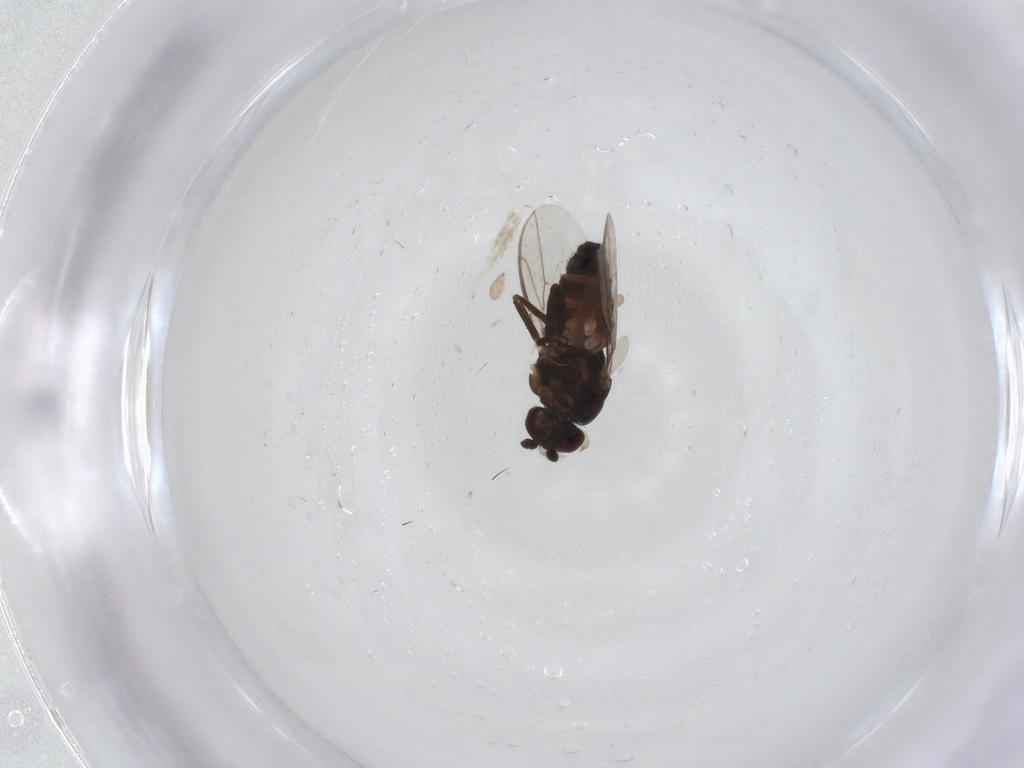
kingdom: Animalia
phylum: Arthropoda
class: Insecta
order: Diptera
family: Sphaeroceridae
